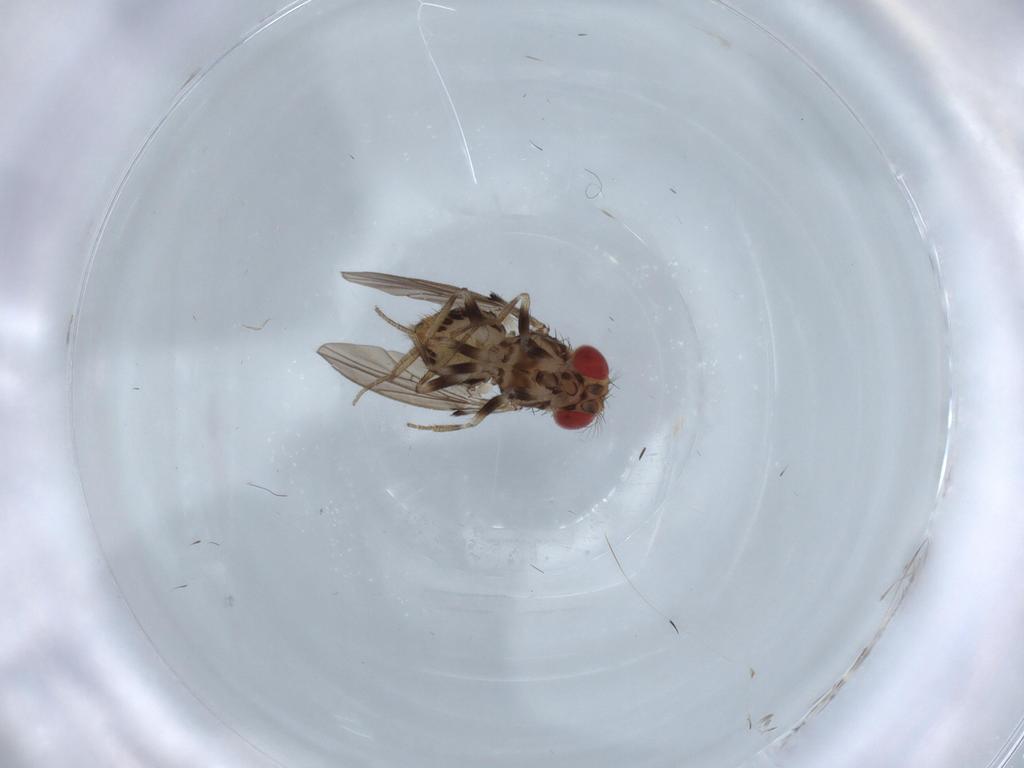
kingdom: Animalia
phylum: Arthropoda
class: Insecta
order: Diptera
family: Drosophilidae
